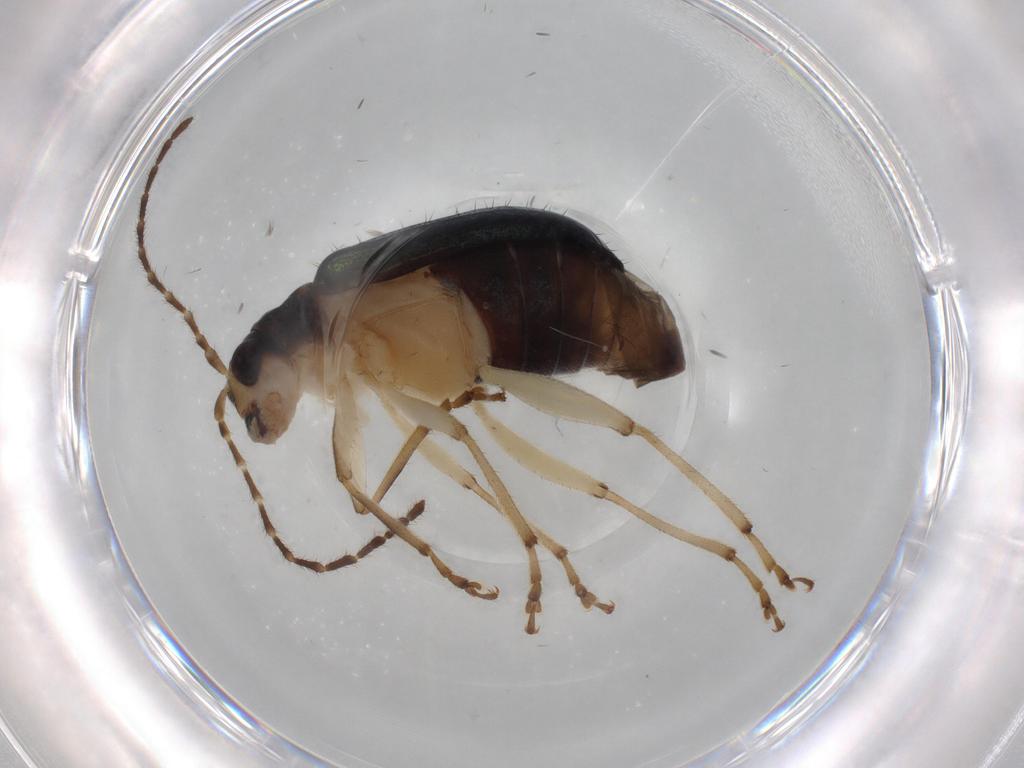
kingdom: Animalia
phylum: Arthropoda
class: Insecta
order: Coleoptera
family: Chrysomelidae
